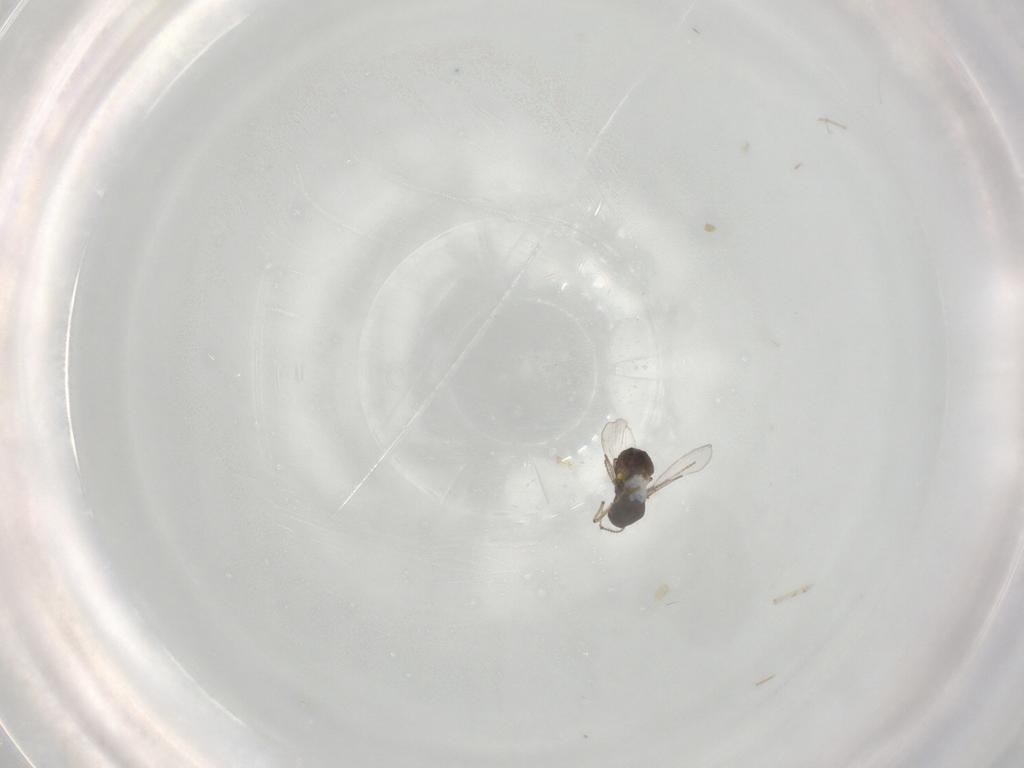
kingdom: Animalia
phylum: Arthropoda
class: Insecta
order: Diptera
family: Ceratopogonidae
